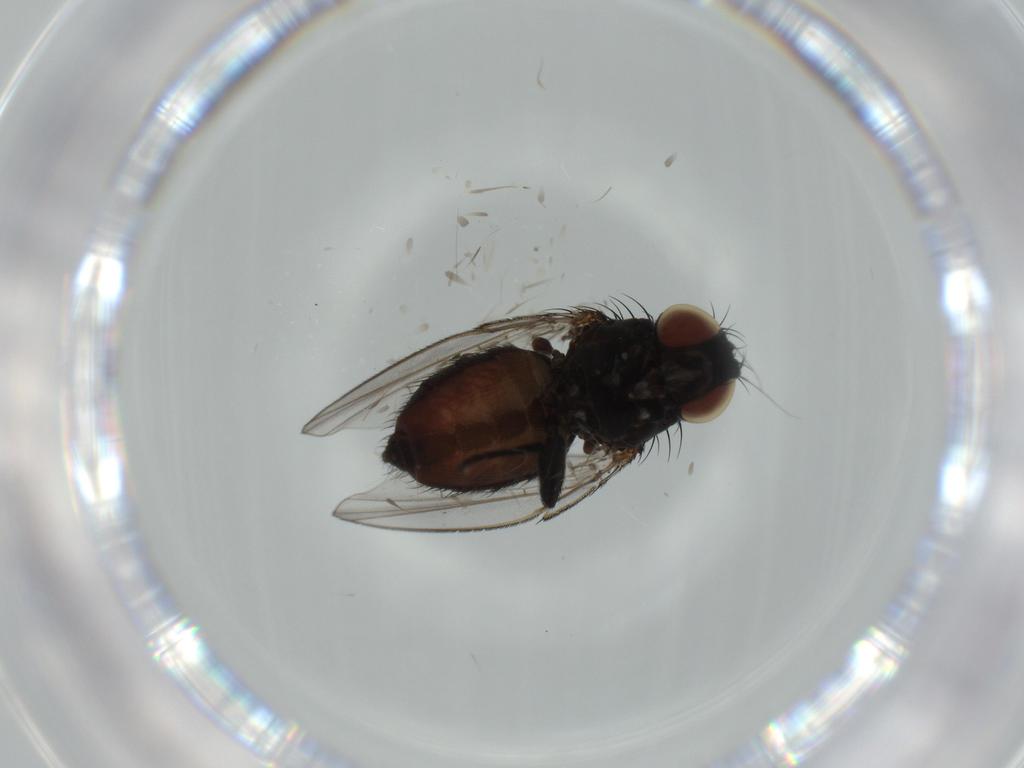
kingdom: Animalia
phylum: Arthropoda
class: Insecta
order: Diptera
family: Milichiidae
